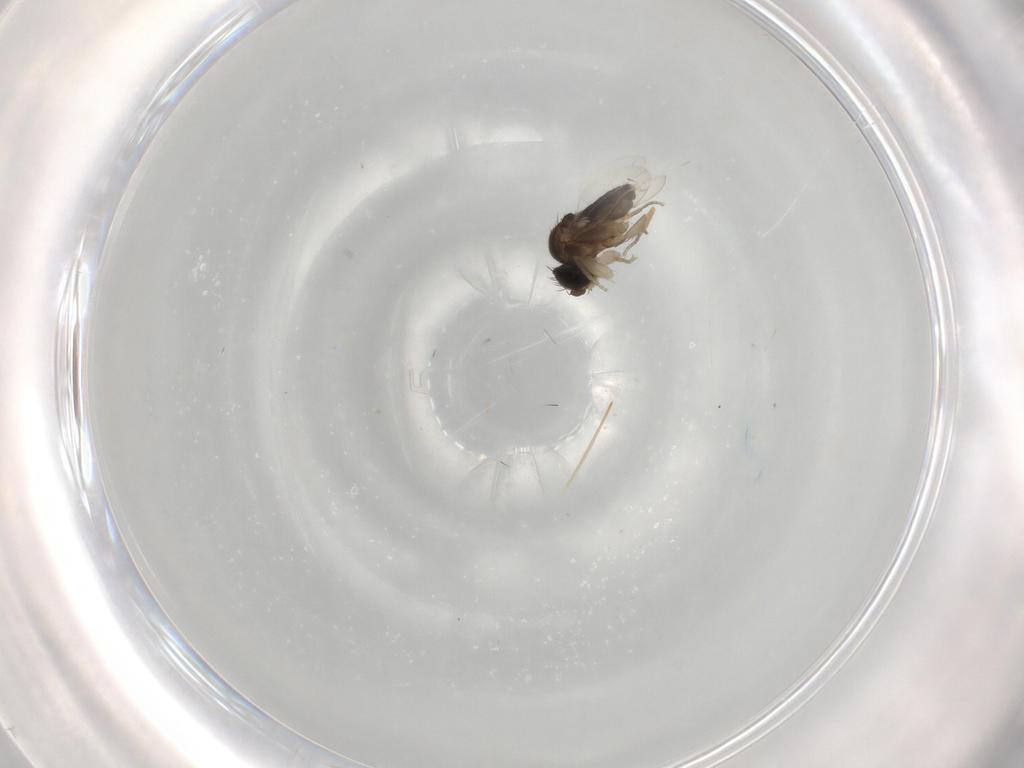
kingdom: Animalia
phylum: Arthropoda
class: Insecta
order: Diptera
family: Phoridae
